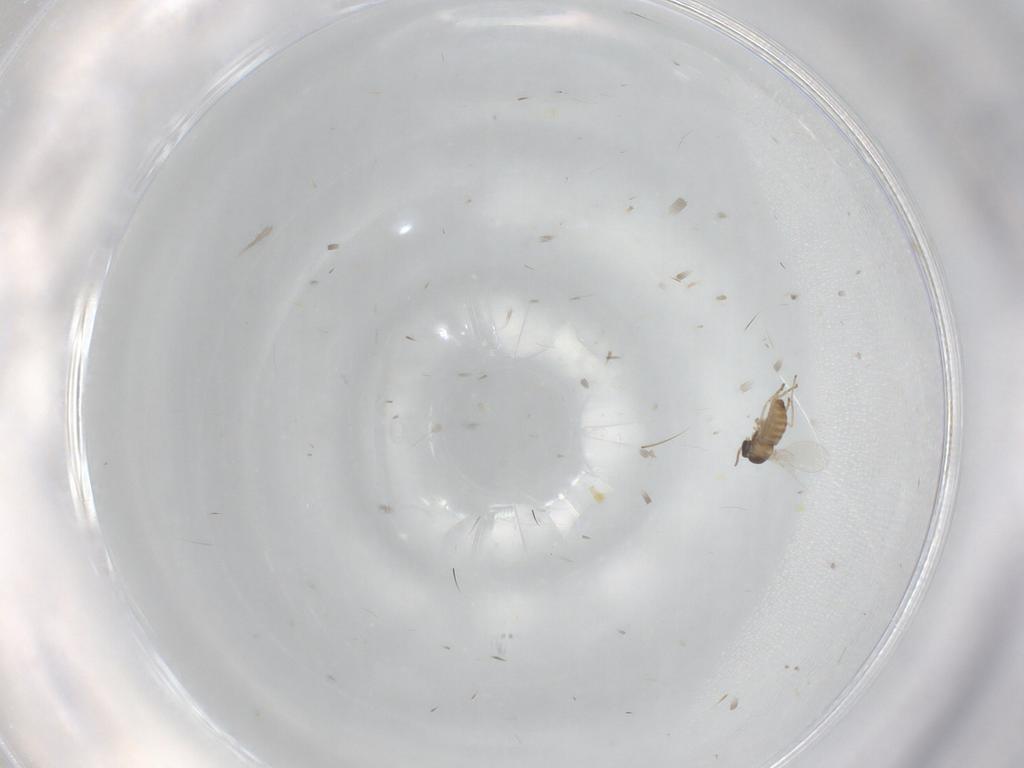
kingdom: Animalia
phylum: Arthropoda
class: Insecta
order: Diptera
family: Cecidomyiidae
